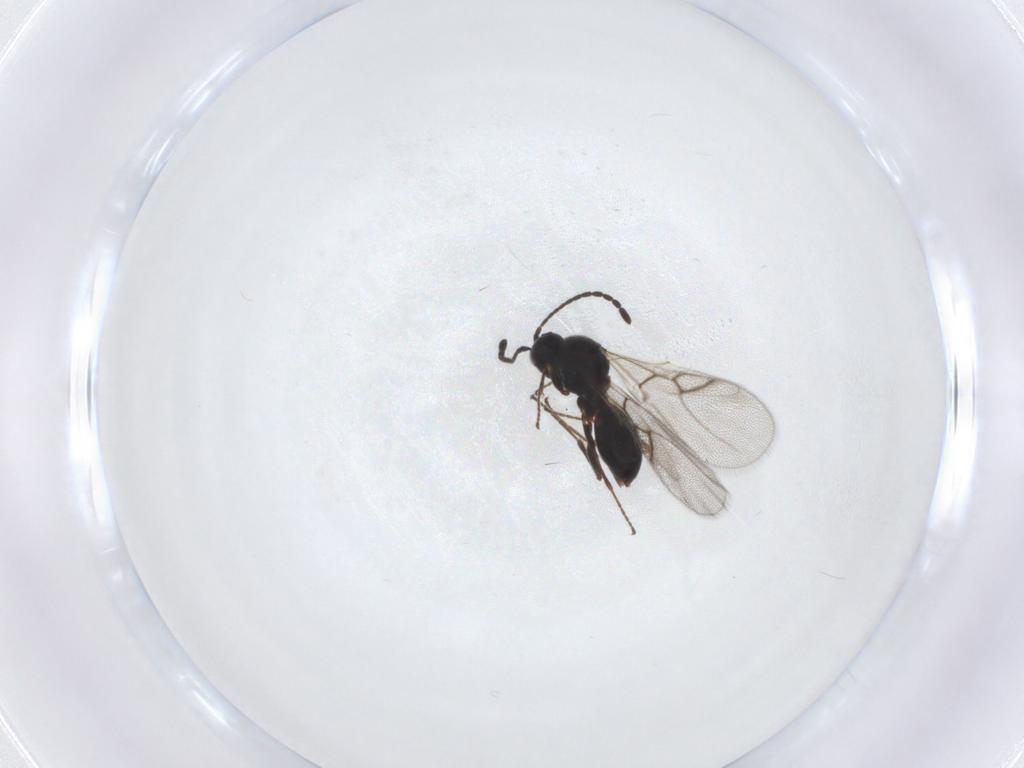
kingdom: Animalia
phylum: Arthropoda
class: Insecta
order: Hymenoptera
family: Figitidae
